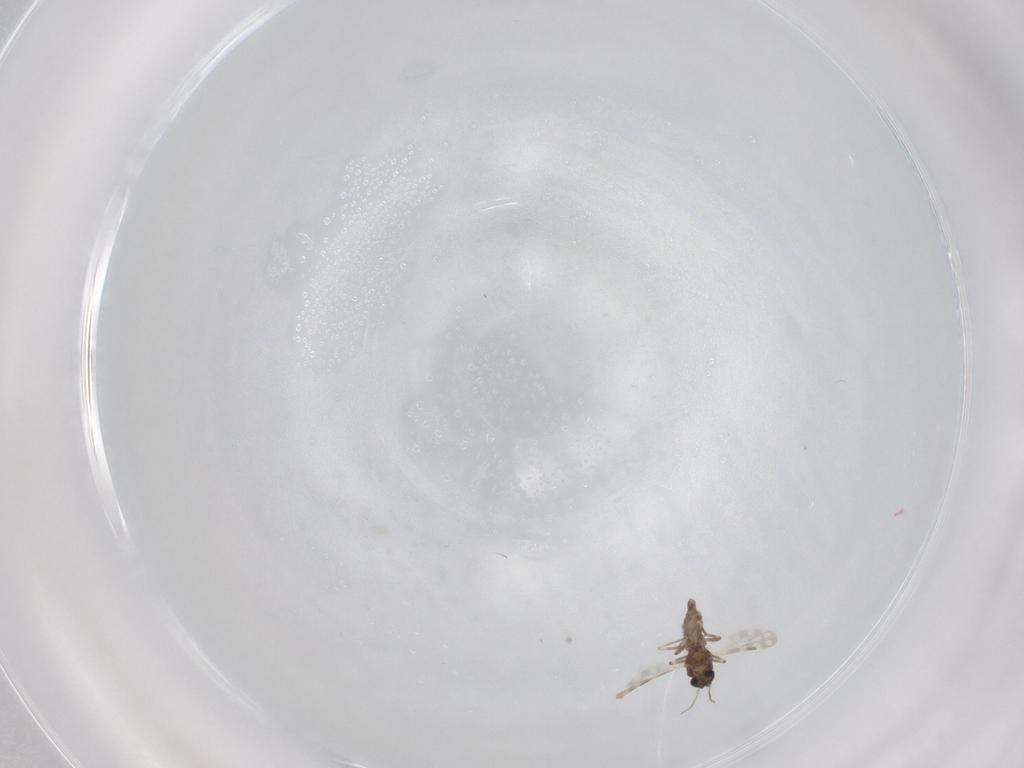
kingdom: Animalia
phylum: Arthropoda
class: Insecta
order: Diptera
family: Ceratopogonidae
